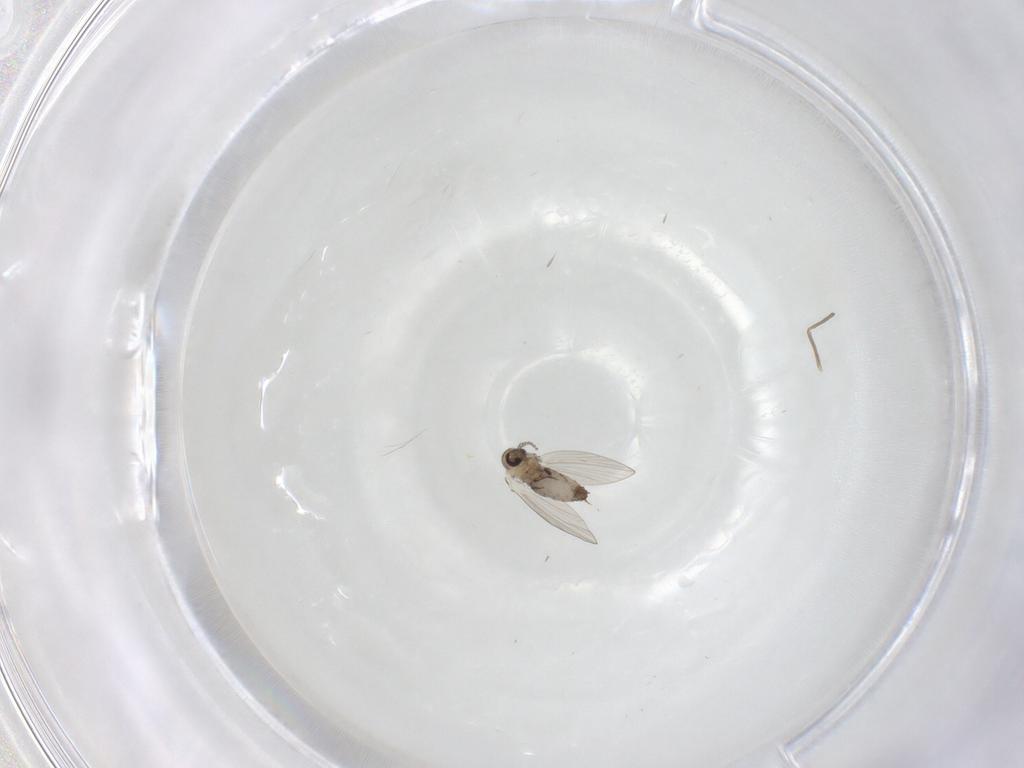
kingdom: Animalia
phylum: Arthropoda
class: Insecta
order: Diptera
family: Psychodidae
